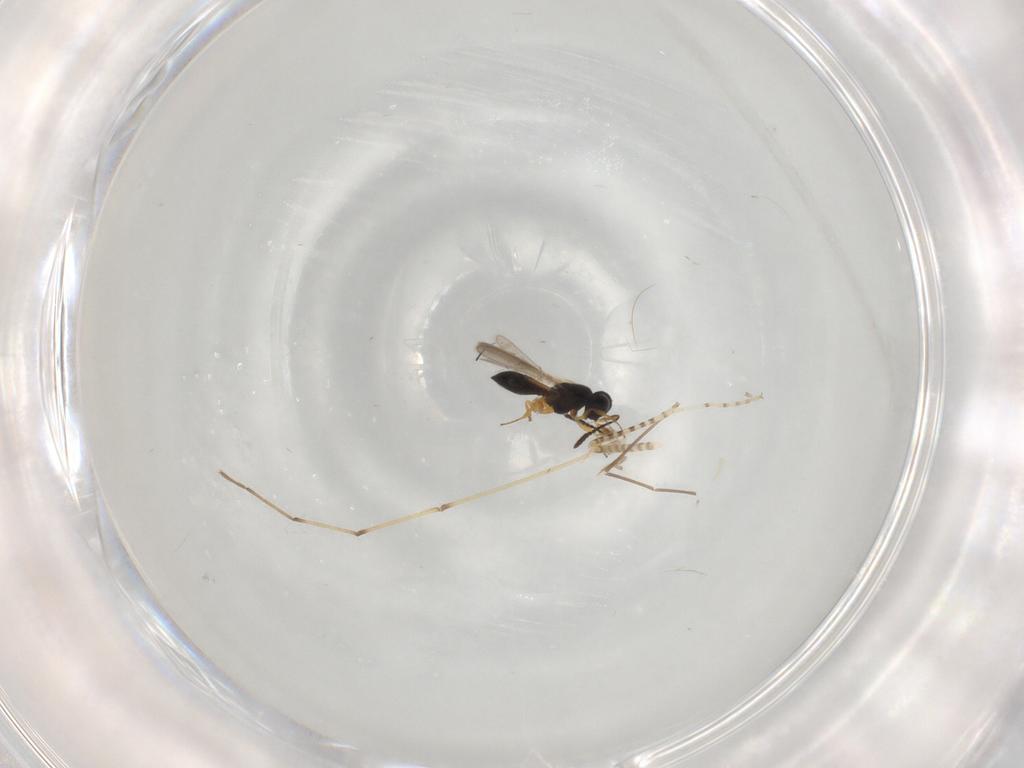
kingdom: Animalia
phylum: Arthropoda
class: Insecta
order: Hymenoptera
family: Scelionidae
